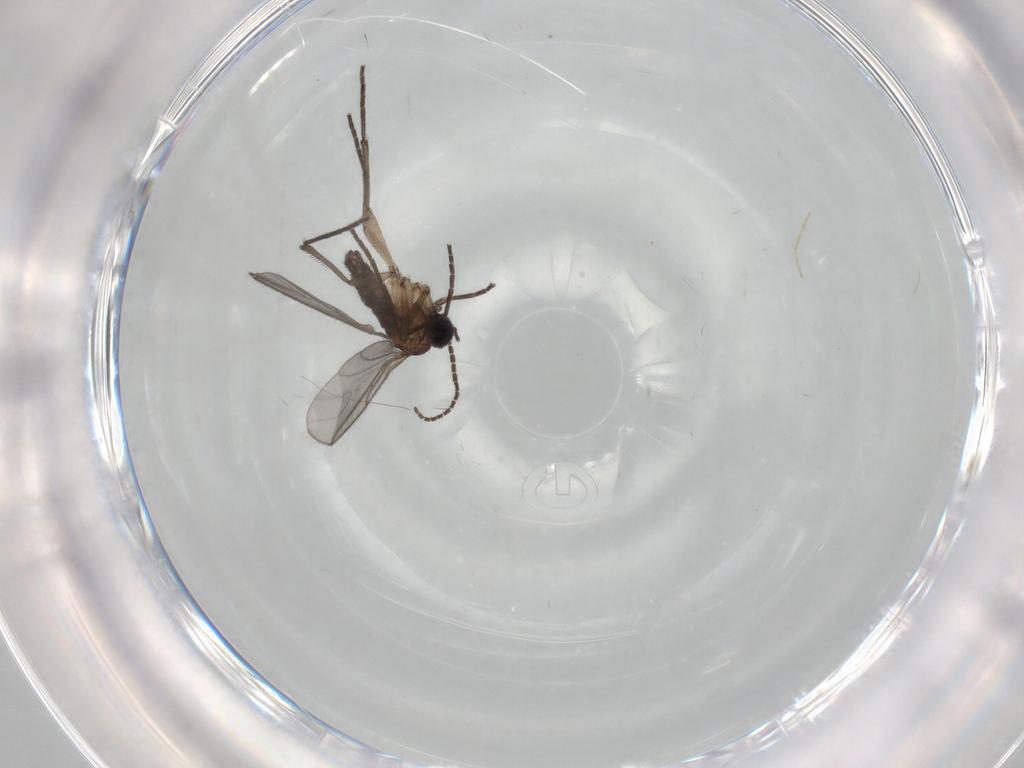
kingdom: Animalia
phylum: Arthropoda
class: Insecta
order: Diptera
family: Sciaridae
